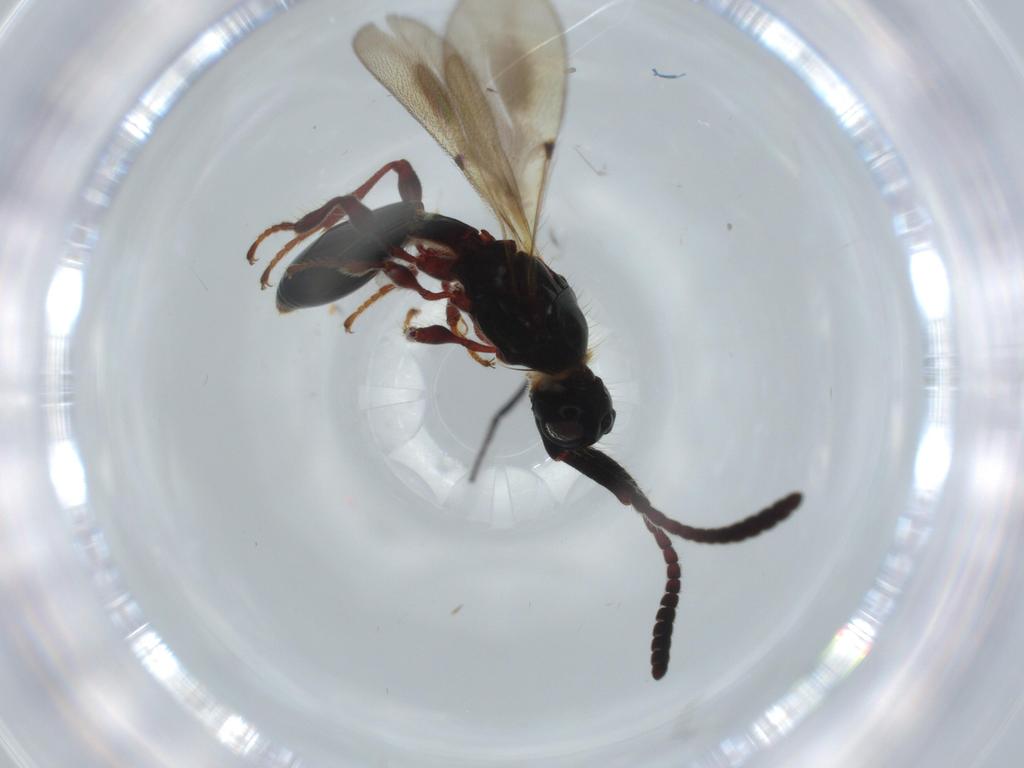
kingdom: Animalia
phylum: Arthropoda
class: Insecta
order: Hymenoptera
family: Diapriidae
